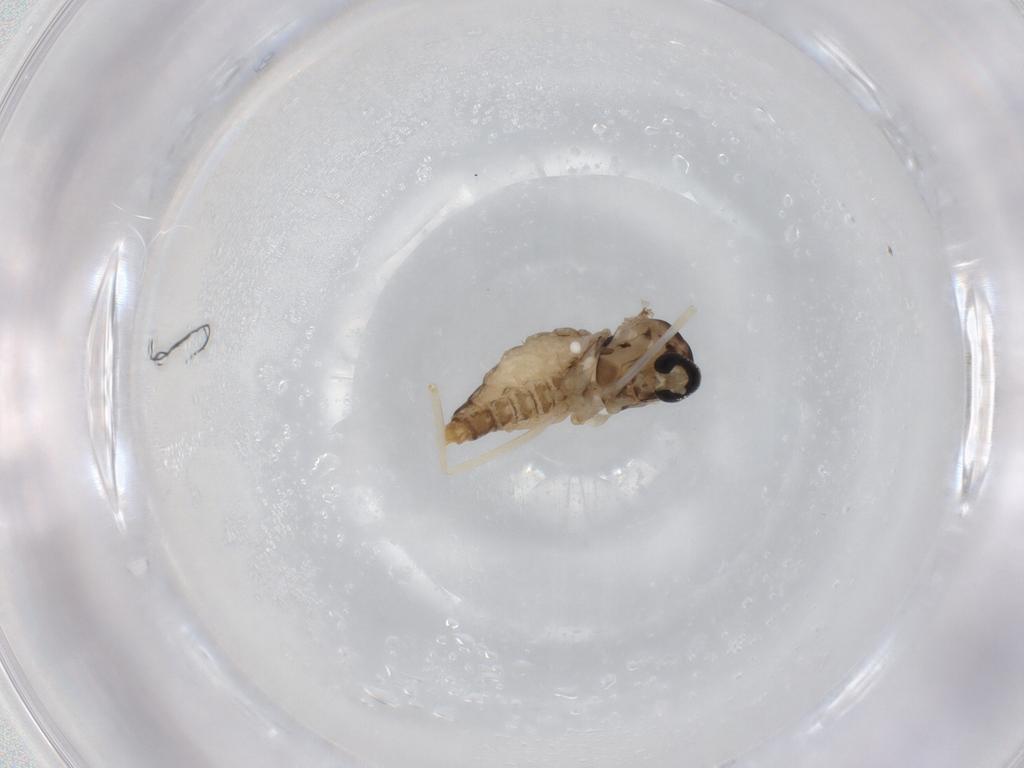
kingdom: Animalia
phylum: Arthropoda
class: Insecta
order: Diptera
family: Cecidomyiidae
